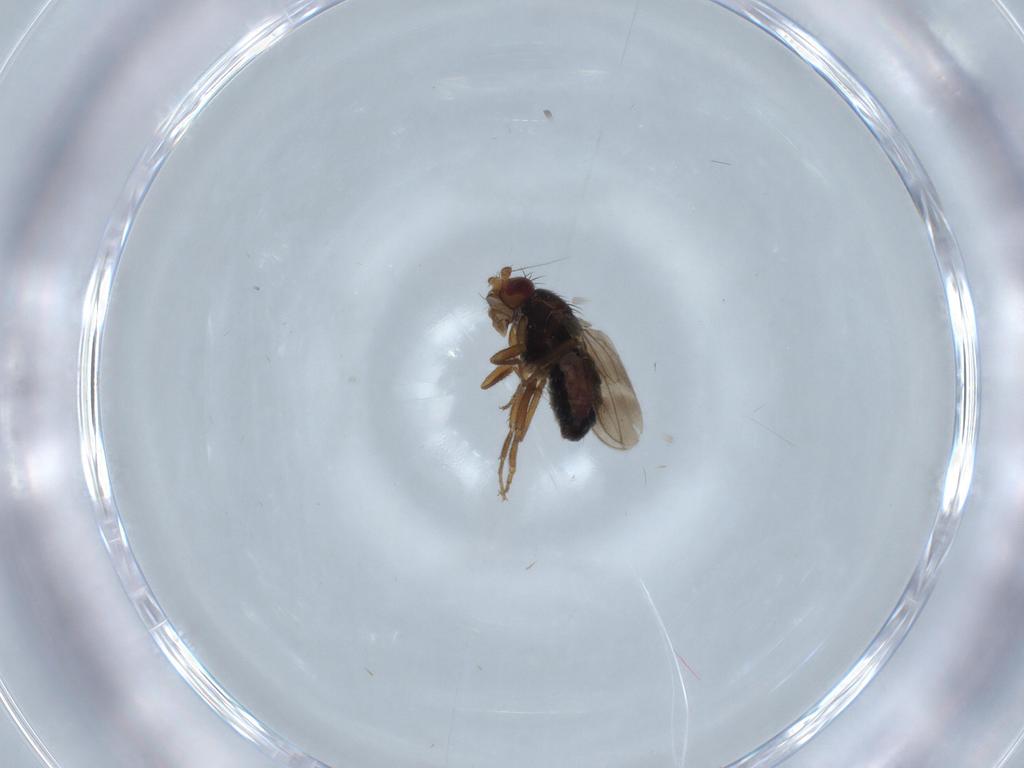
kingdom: Animalia
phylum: Arthropoda
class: Insecta
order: Diptera
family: Sphaeroceridae
